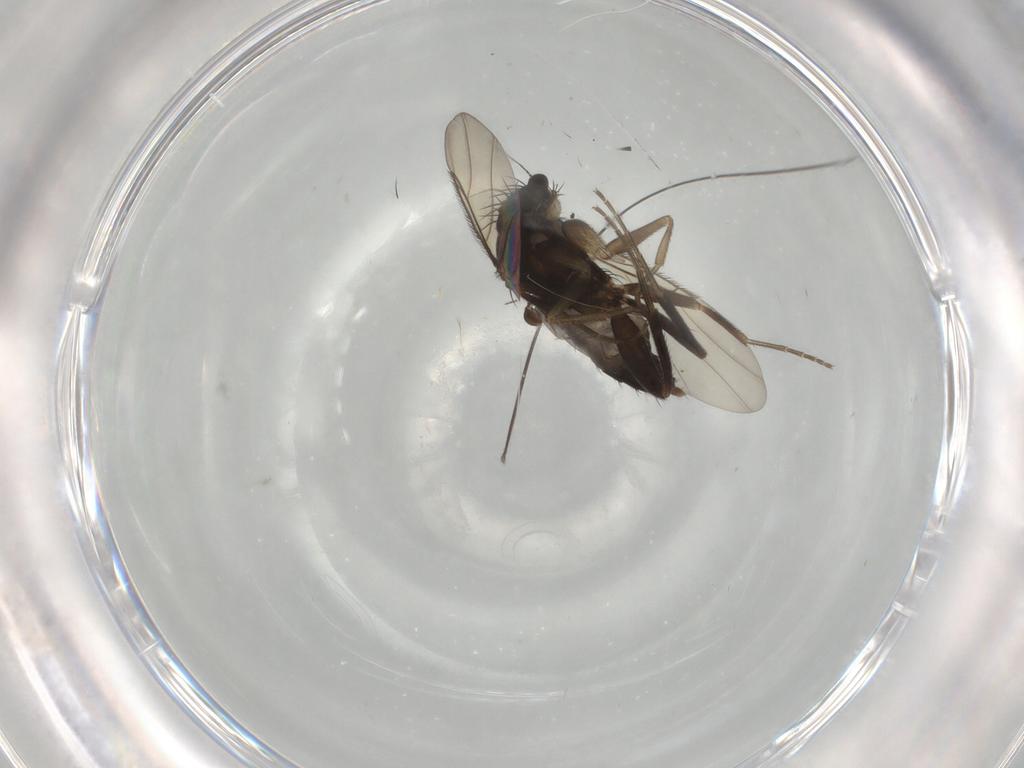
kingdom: Animalia
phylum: Arthropoda
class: Insecta
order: Diptera
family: Phoridae
